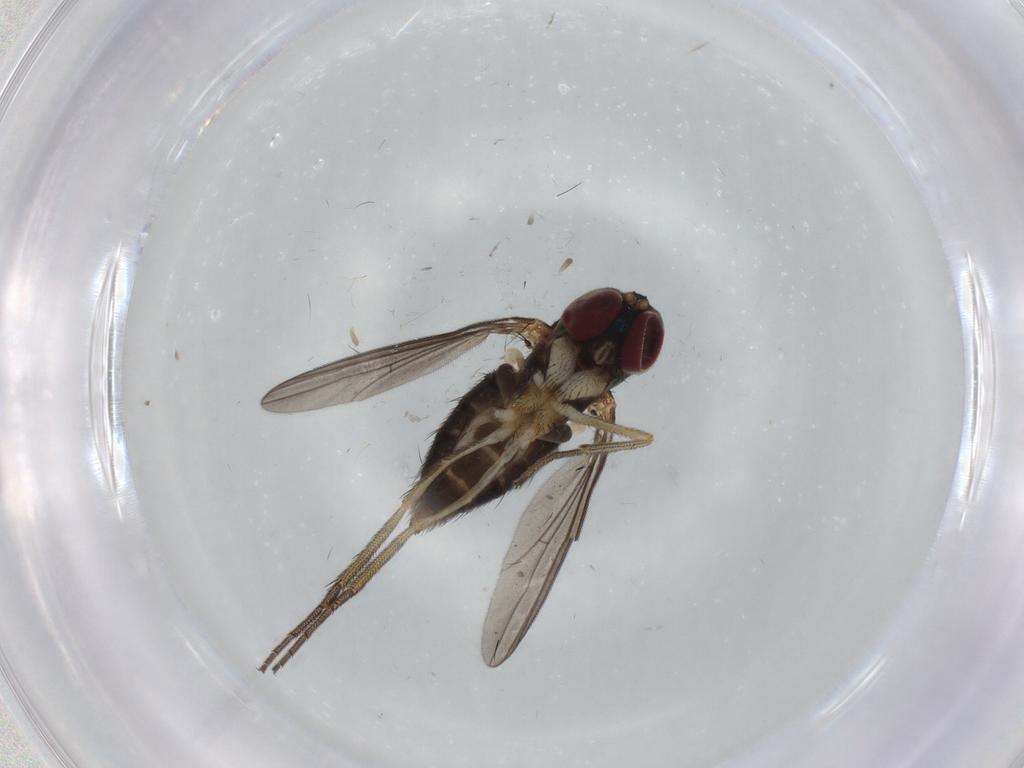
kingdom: Animalia
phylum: Arthropoda
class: Insecta
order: Diptera
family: Dolichopodidae
